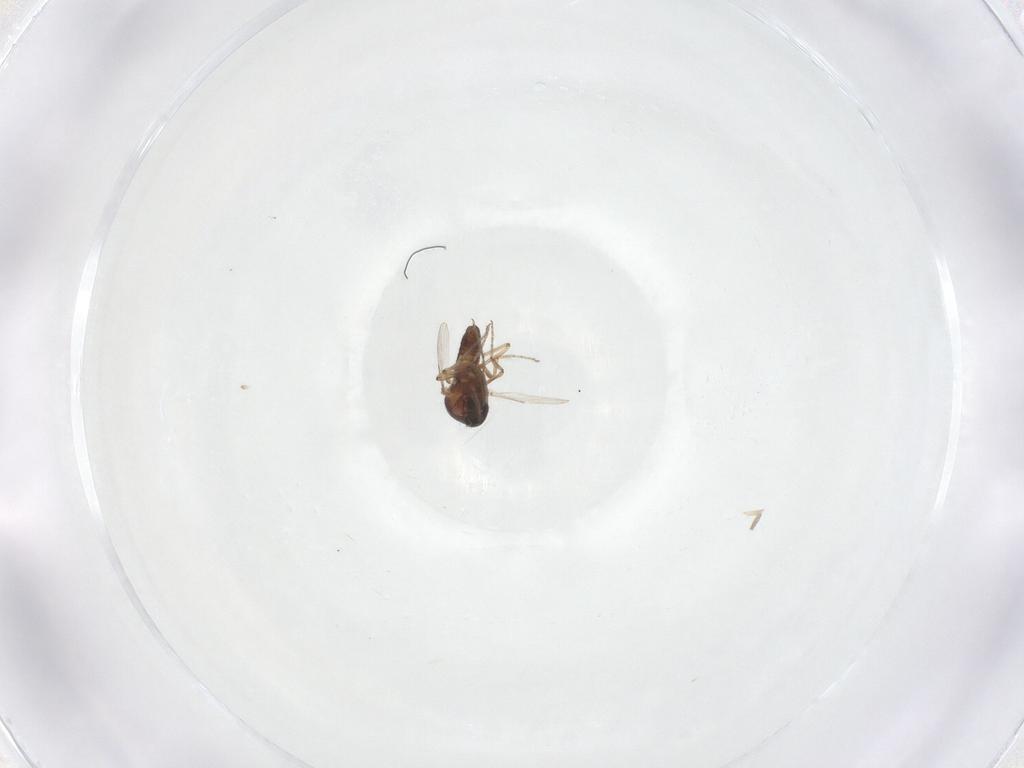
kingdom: Animalia
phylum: Arthropoda
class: Insecta
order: Diptera
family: Ceratopogonidae
